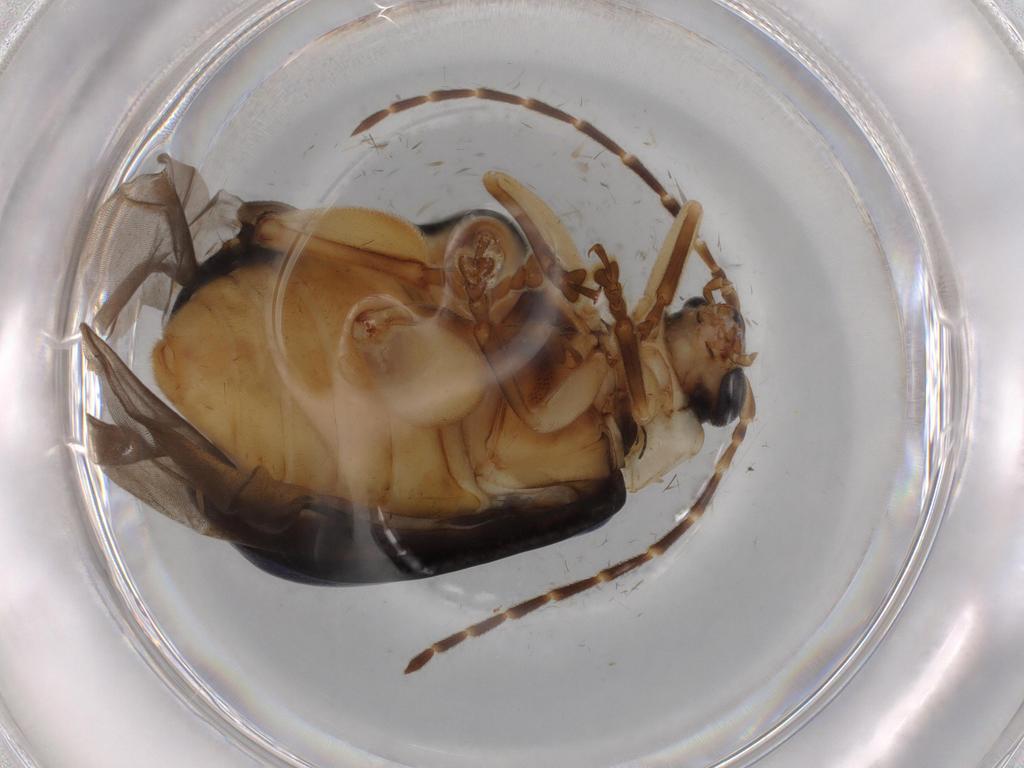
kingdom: Animalia
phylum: Arthropoda
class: Insecta
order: Coleoptera
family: Chrysomelidae
